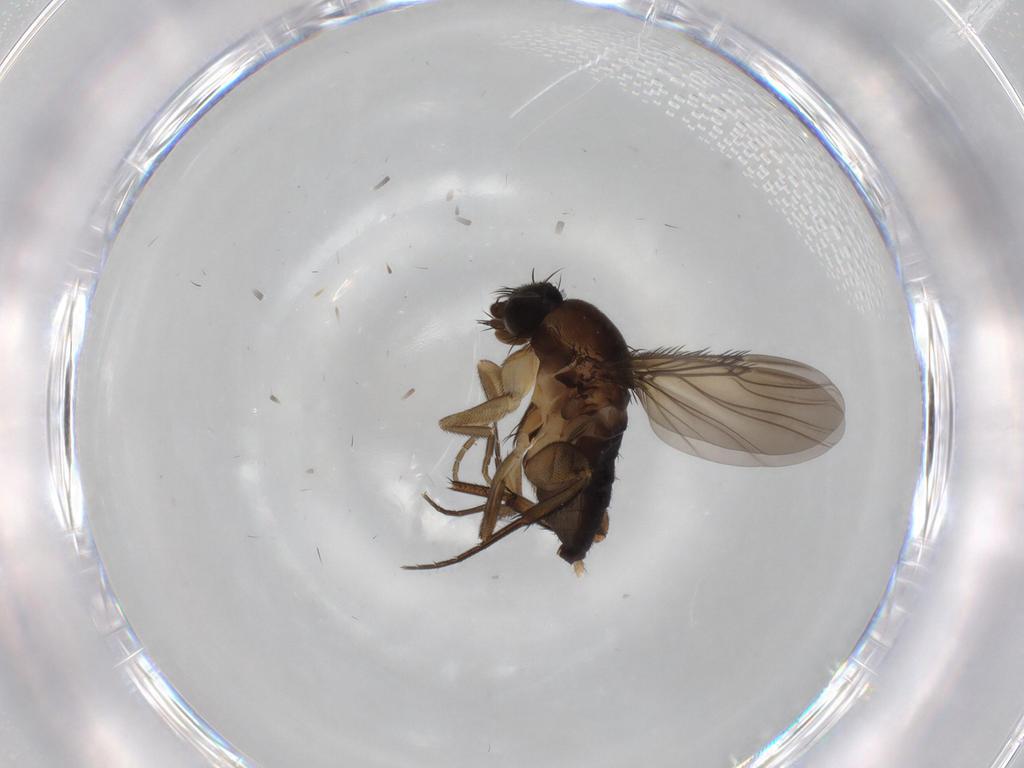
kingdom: Animalia
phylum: Arthropoda
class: Insecta
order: Diptera
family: Phoridae
